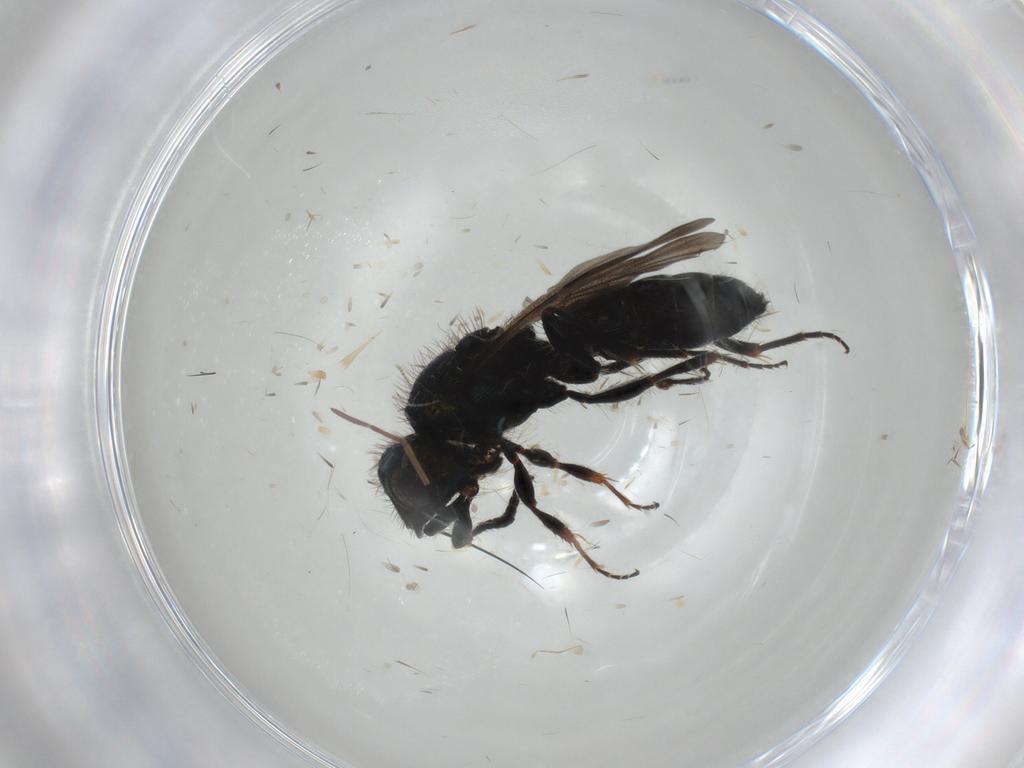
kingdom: Animalia
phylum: Arthropoda
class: Insecta
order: Hymenoptera
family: Sparasionidae
